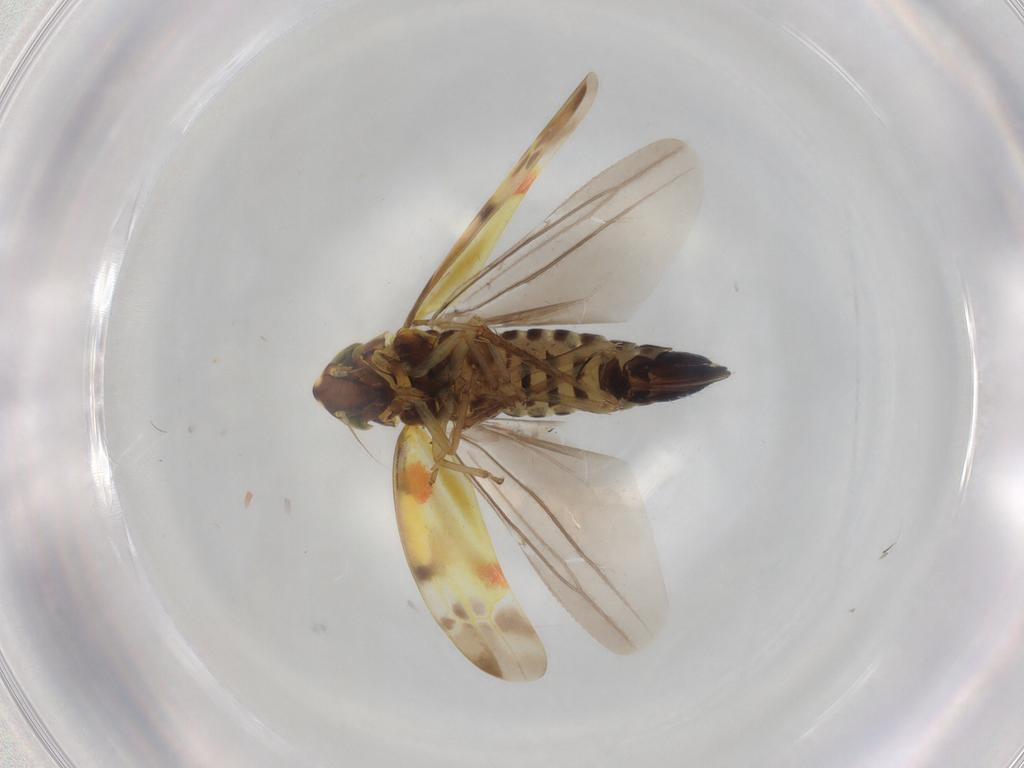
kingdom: Animalia
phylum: Arthropoda
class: Insecta
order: Hemiptera
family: Cicadellidae
